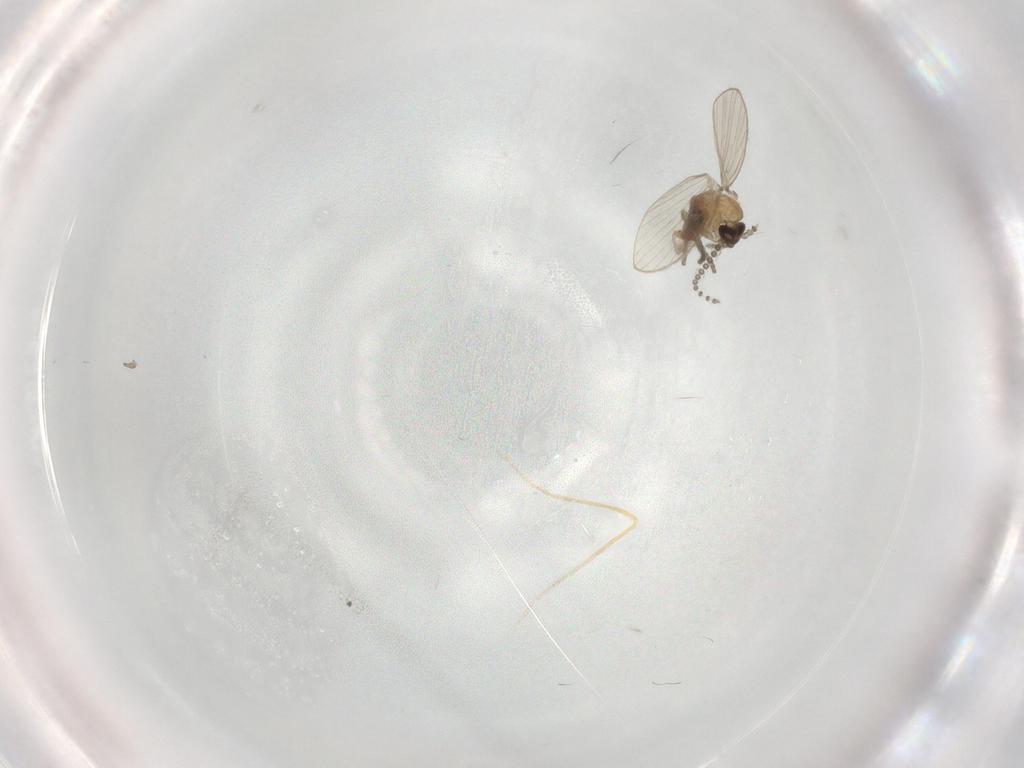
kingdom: Animalia
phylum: Arthropoda
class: Insecta
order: Diptera
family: Psychodidae
